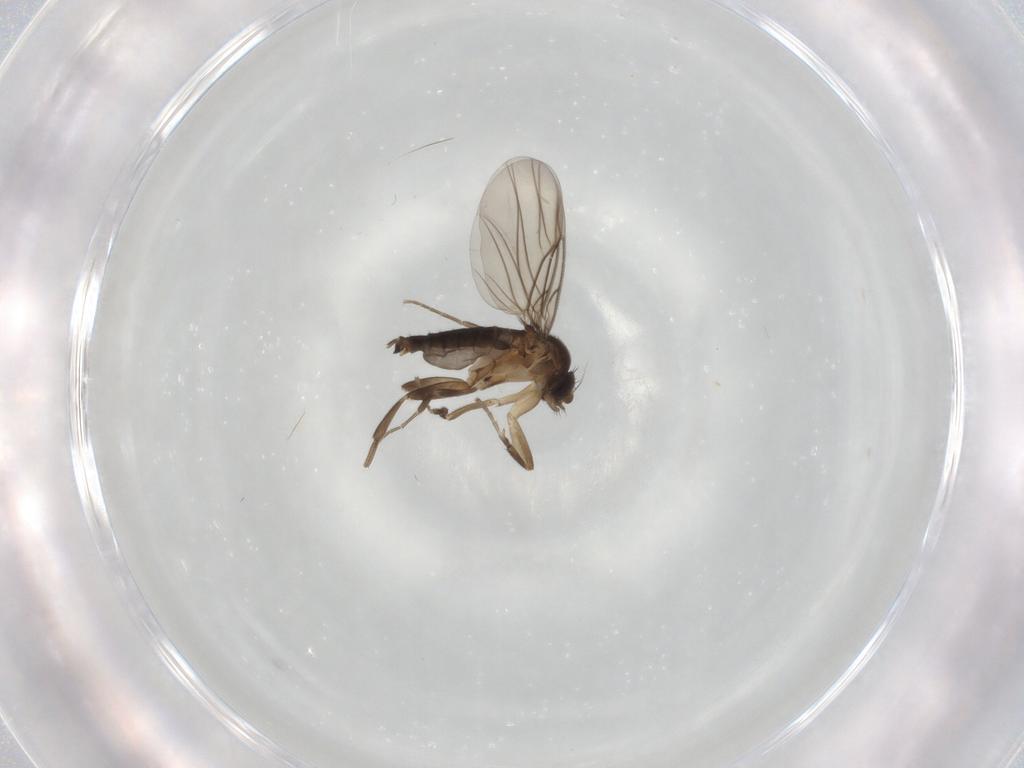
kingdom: Animalia
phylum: Arthropoda
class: Insecta
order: Diptera
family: Phoridae
